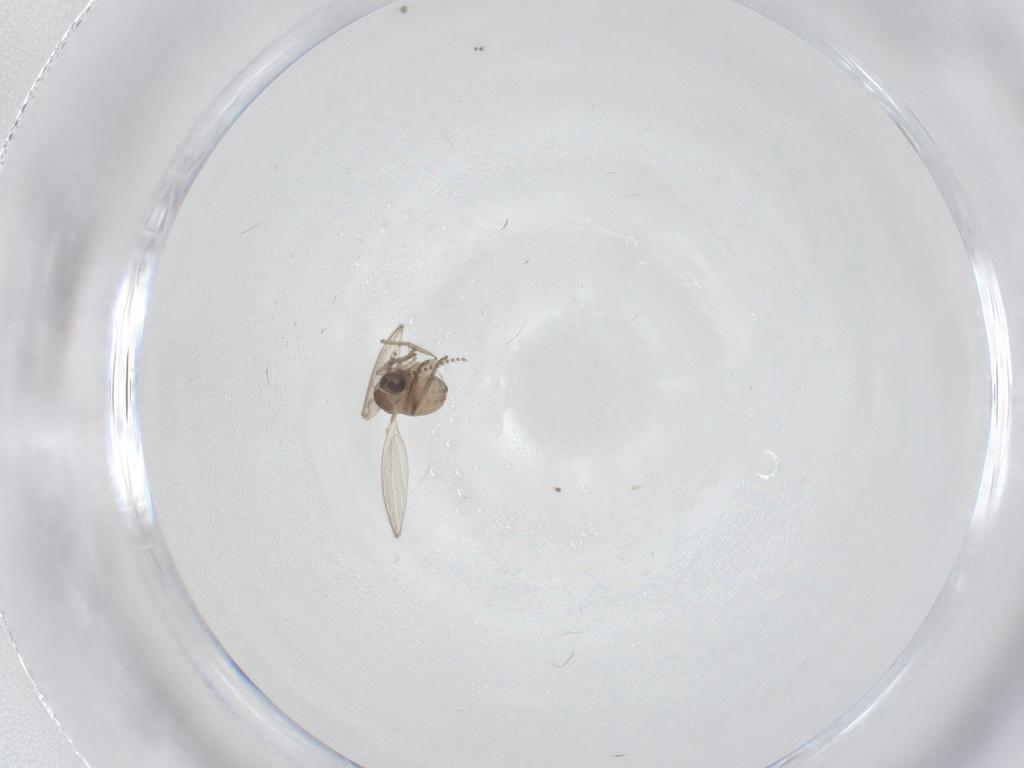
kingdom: Animalia
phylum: Arthropoda
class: Insecta
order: Diptera
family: Psychodidae
